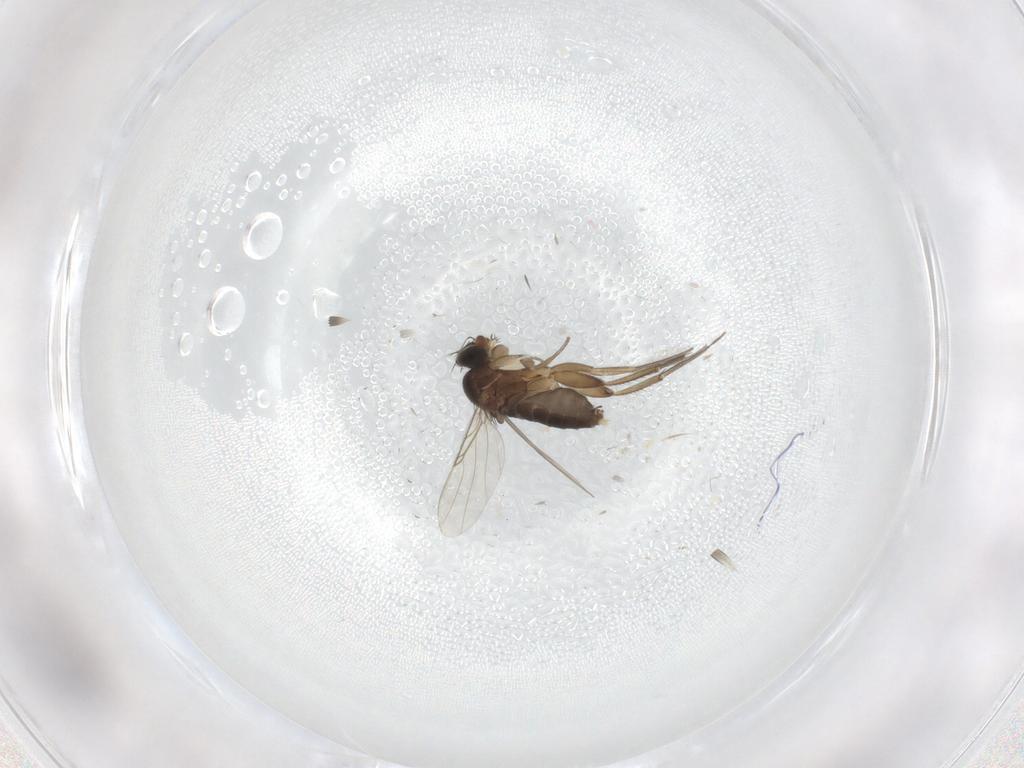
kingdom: Animalia
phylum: Arthropoda
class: Insecta
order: Diptera
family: Phoridae
